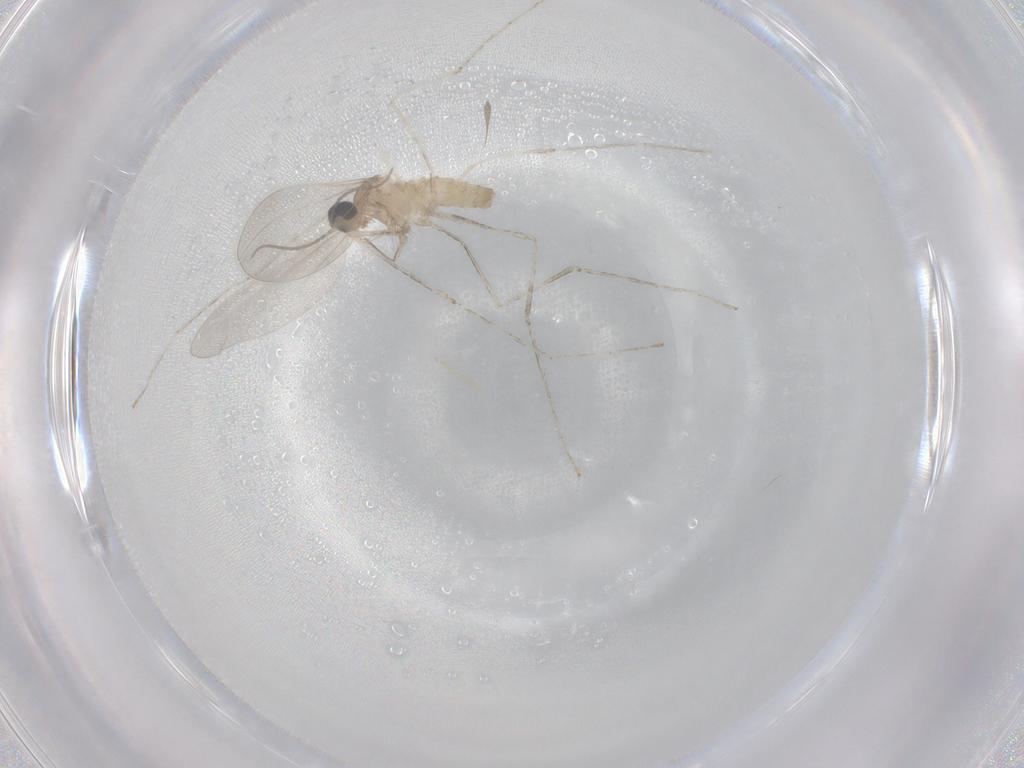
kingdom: Animalia
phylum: Arthropoda
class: Insecta
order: Diptera
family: Cecidomyiidae
